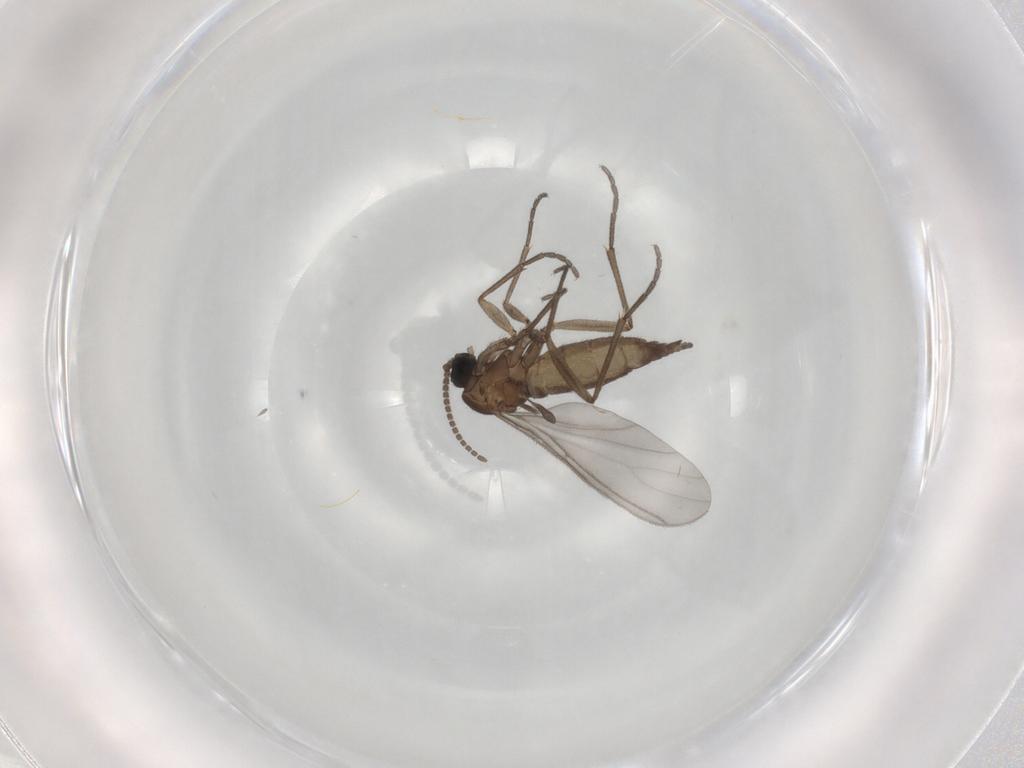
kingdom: Animalia
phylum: Arthropoda
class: Insecta
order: Diptera
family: Sciaridae
